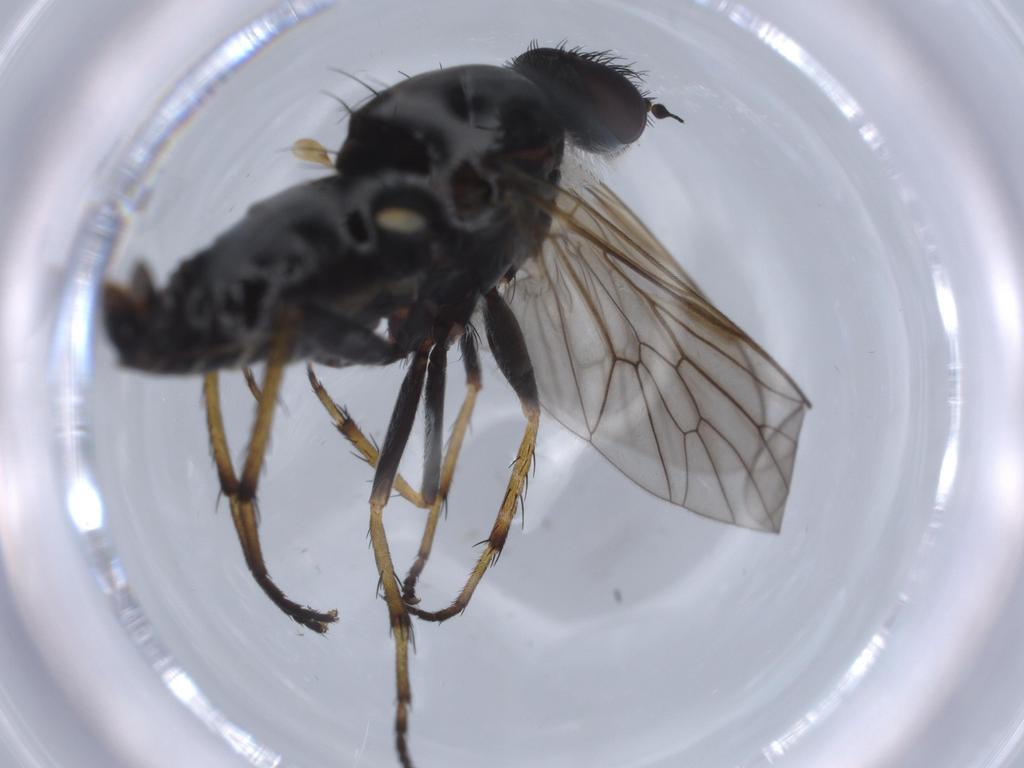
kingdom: Animalia
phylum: Arthropoda
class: Insecta
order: Diptera
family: Therevidae
